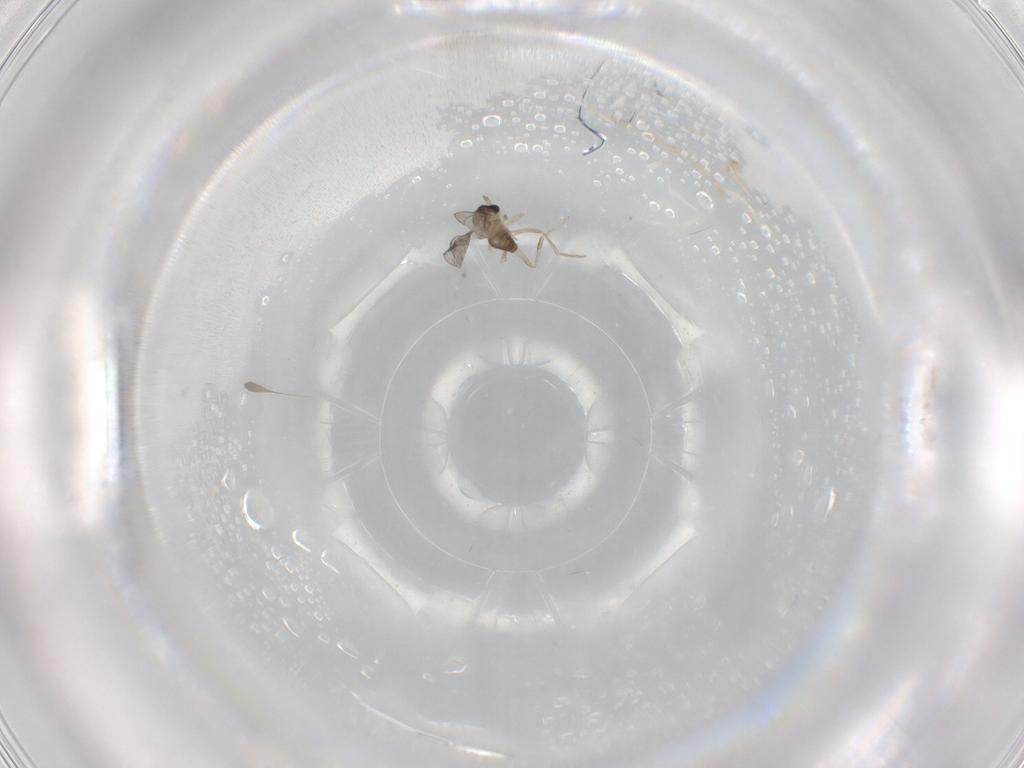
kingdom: Animalia
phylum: Arthropoda
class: Insecta
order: Diptera
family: Cecidomyiidae
